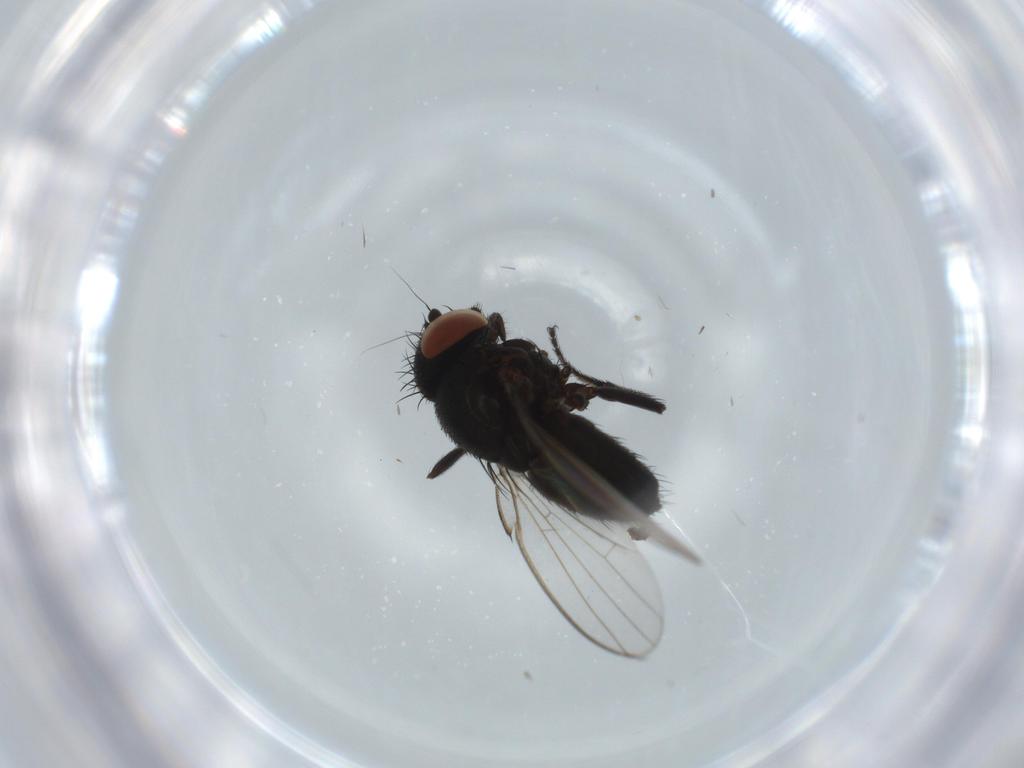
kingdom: Animalia
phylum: Arthropoda
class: Insecta
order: Diptera
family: Milichiidae
